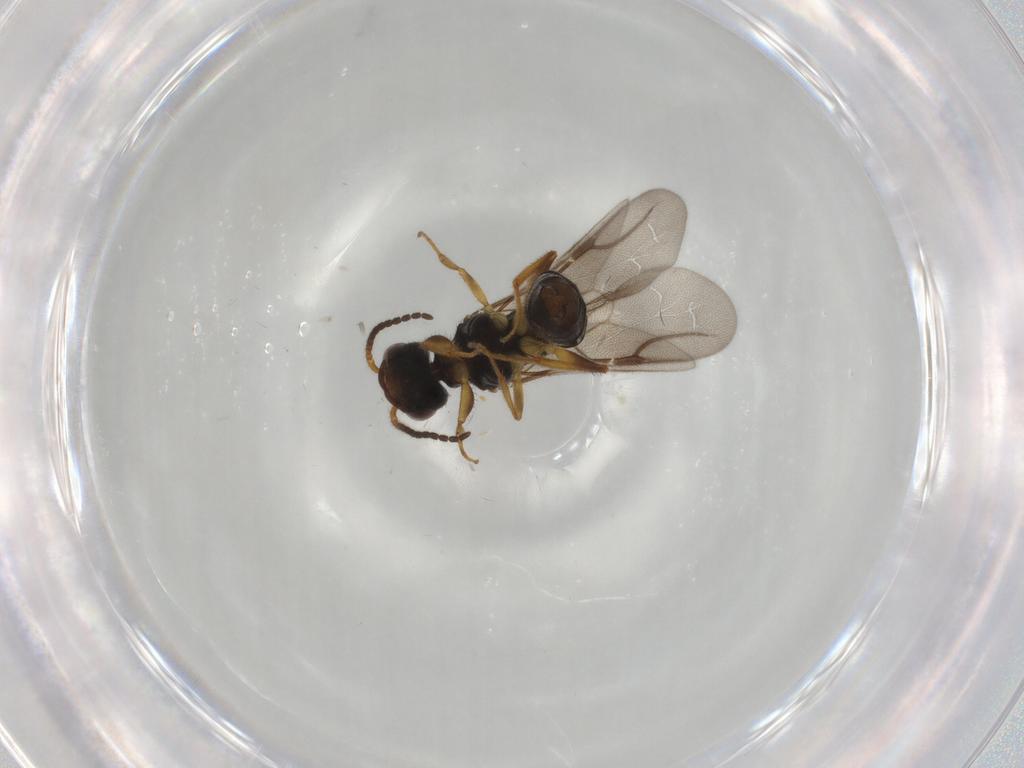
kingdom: Animalia
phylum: Arthropoda
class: Insecta
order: Hymenoptera
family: Bethylidae
